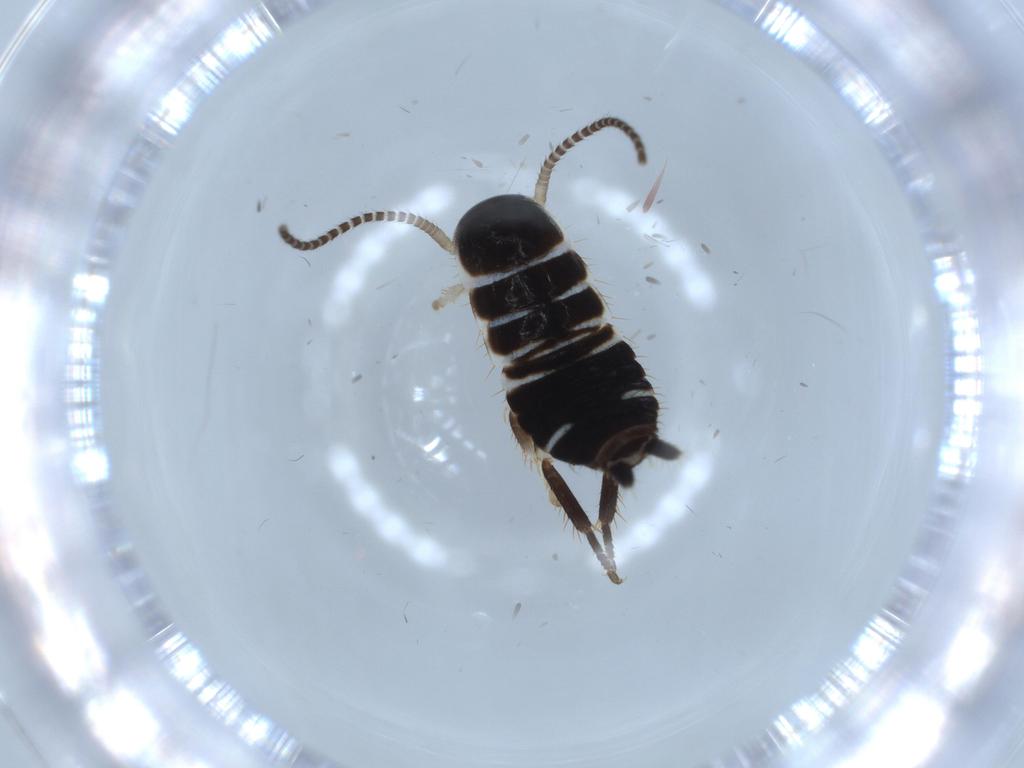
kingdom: Animalia
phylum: Arthropoda
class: Insecta
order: Blattodea
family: Ectobiidae
